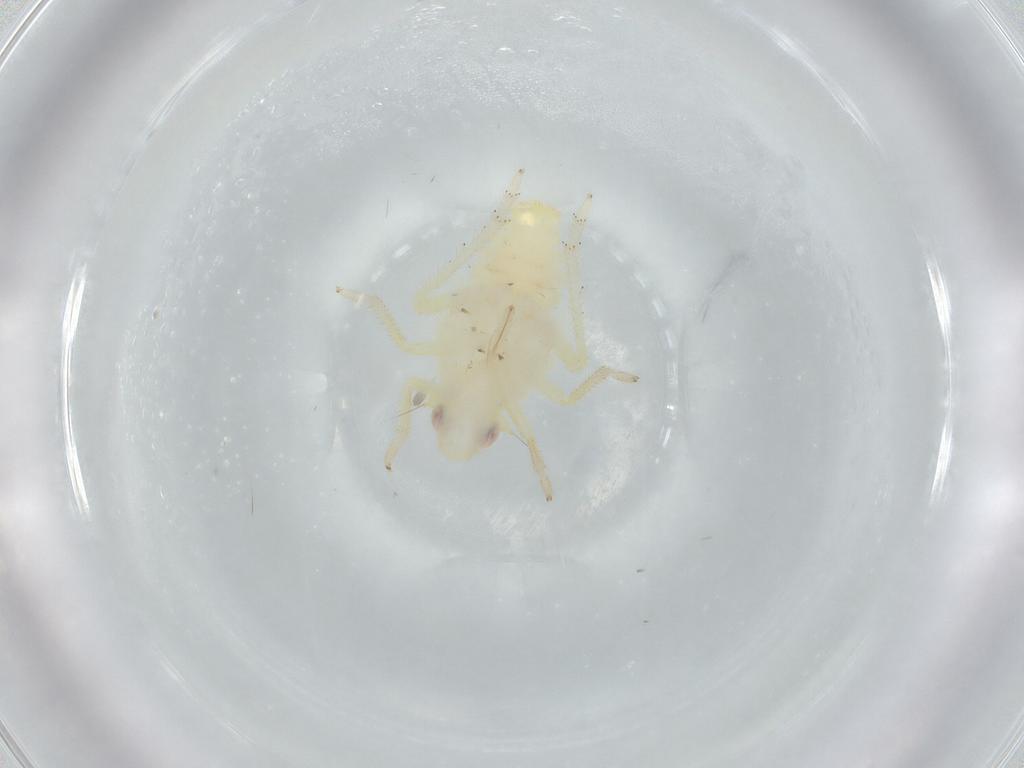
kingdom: Animalia
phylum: Arthropoda
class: Insecta
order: Hemiptera
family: Tropiduchidae
